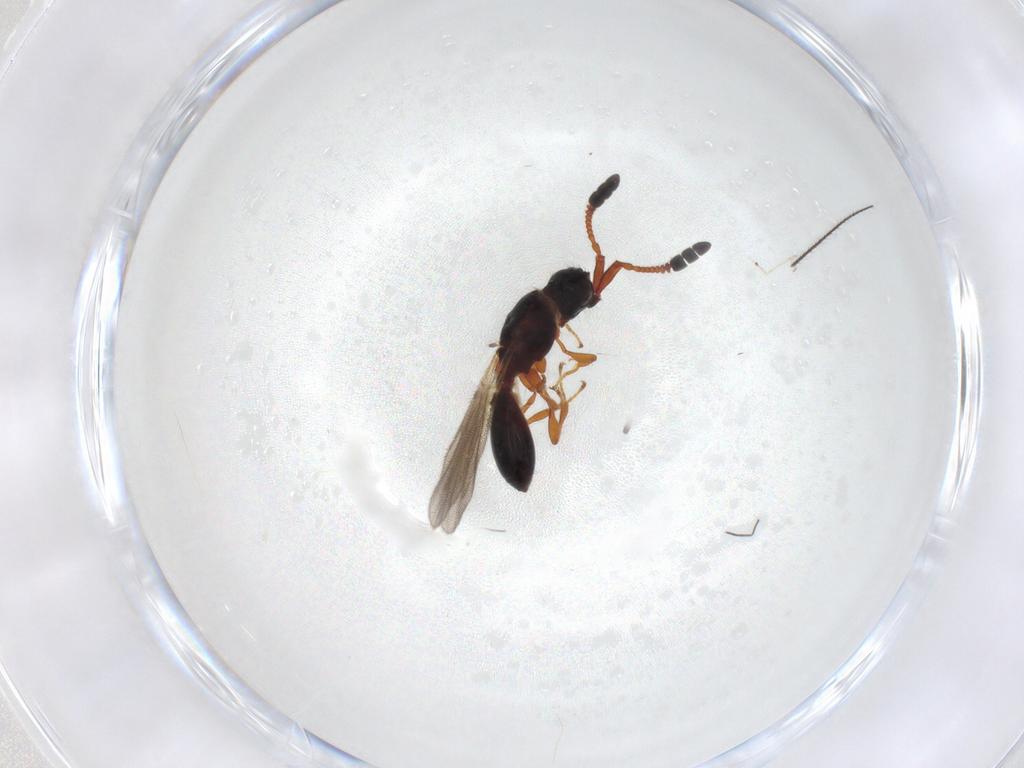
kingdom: Animalia
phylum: Arthropoda
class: Insecta
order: Hymenoptera
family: Diapriidae
